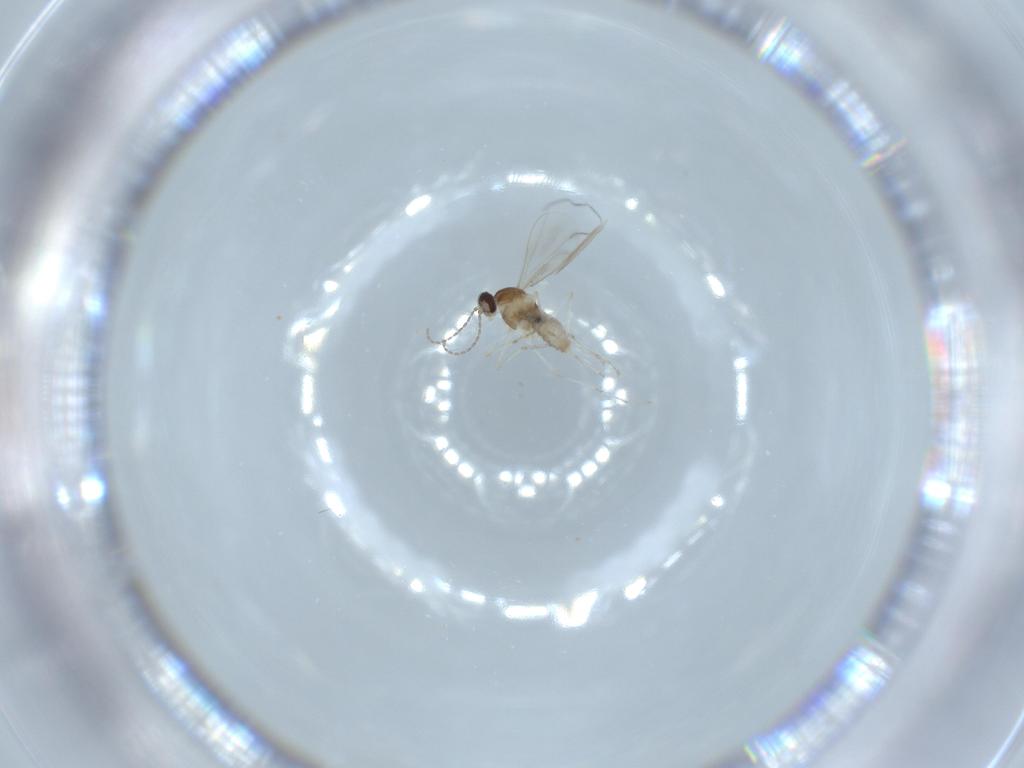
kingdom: Animalia
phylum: Arthropoda
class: Insecta
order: Diptera
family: Cecidomyiidae
